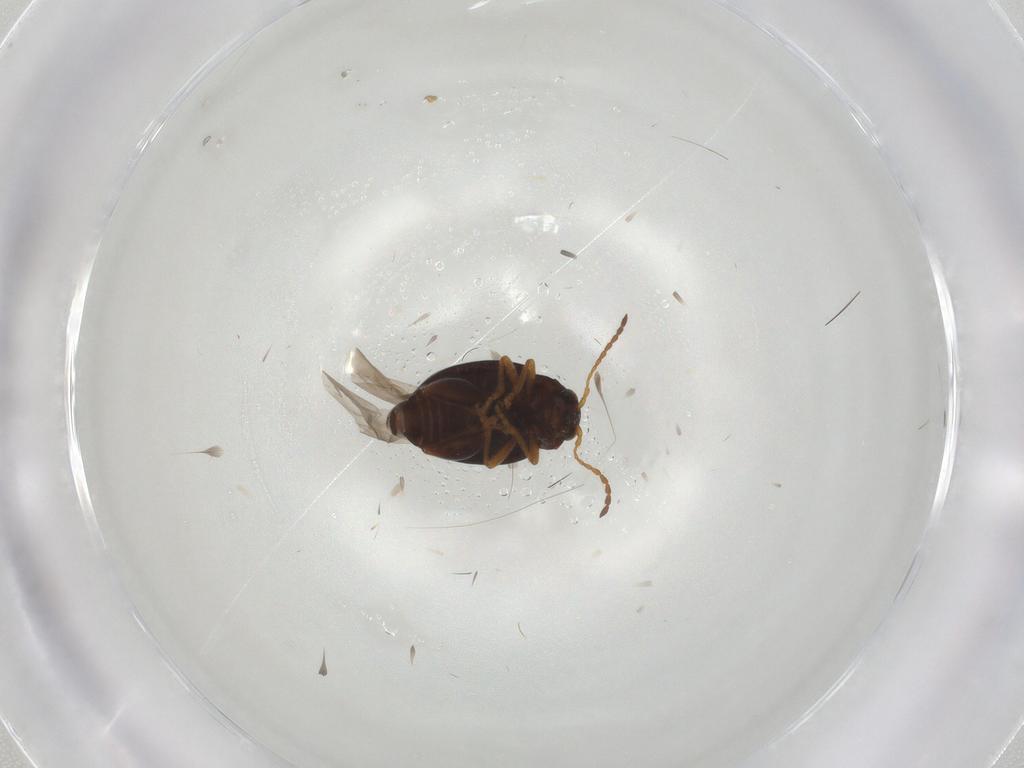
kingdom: Animalia
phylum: Arthropoda
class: Insecta
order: Coleoptera
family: Chrysomelidae
